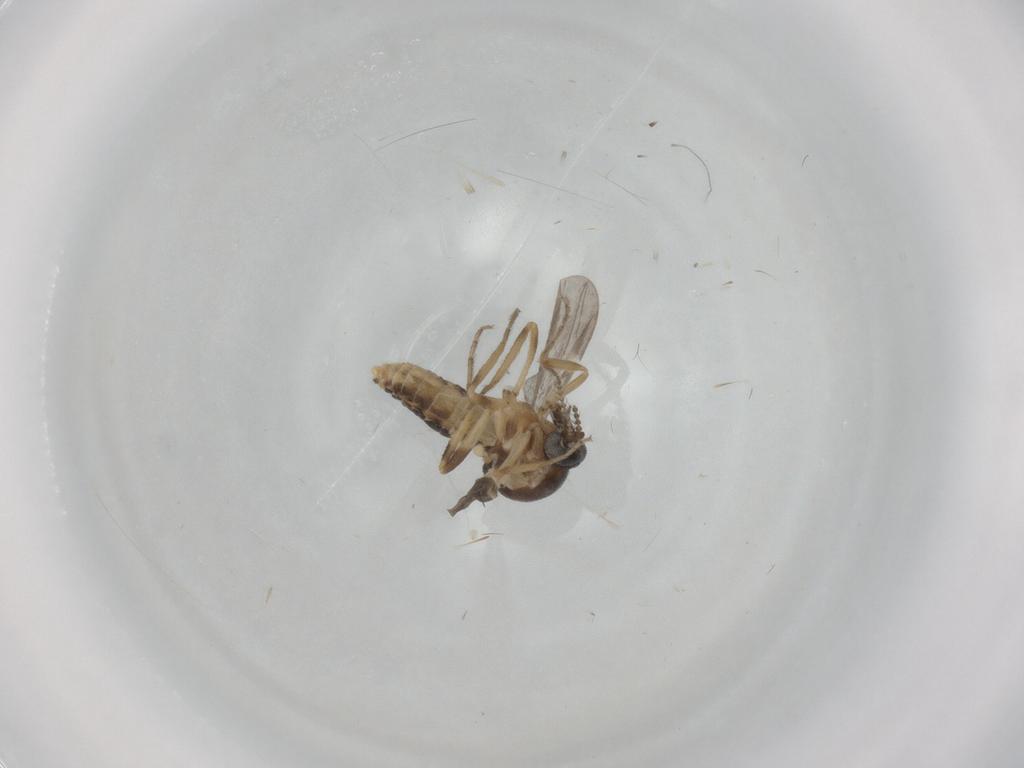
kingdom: Animalia
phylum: Arthropoda
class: Insecta
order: Diptera
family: Ceratopogonidae
